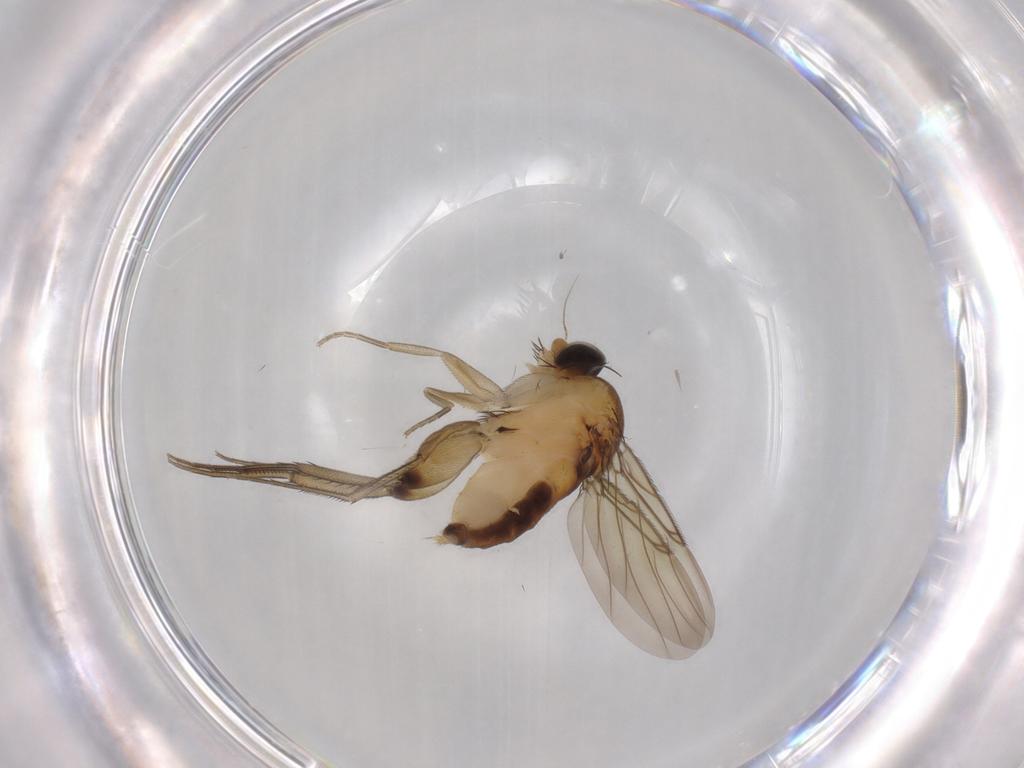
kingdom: Animalia
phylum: Arthropoda
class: Insecta
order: Diptera
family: Phoridae
